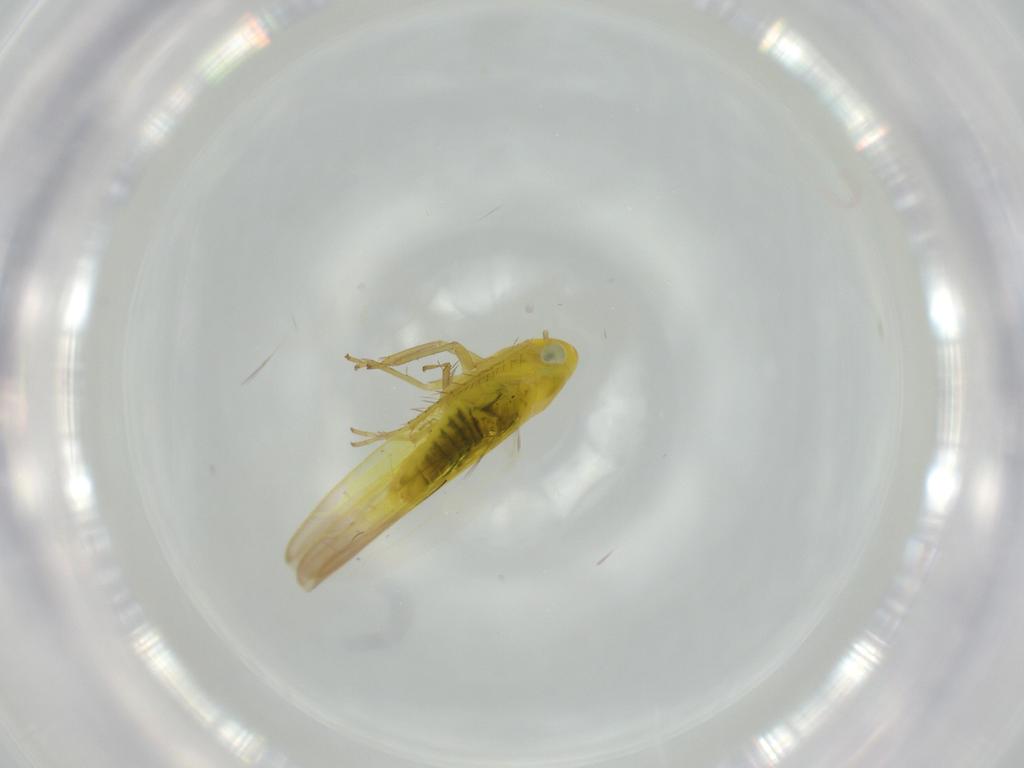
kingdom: Animalia
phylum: Arthropoda
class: Insecta
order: Hemiptera
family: Cicadellidae
